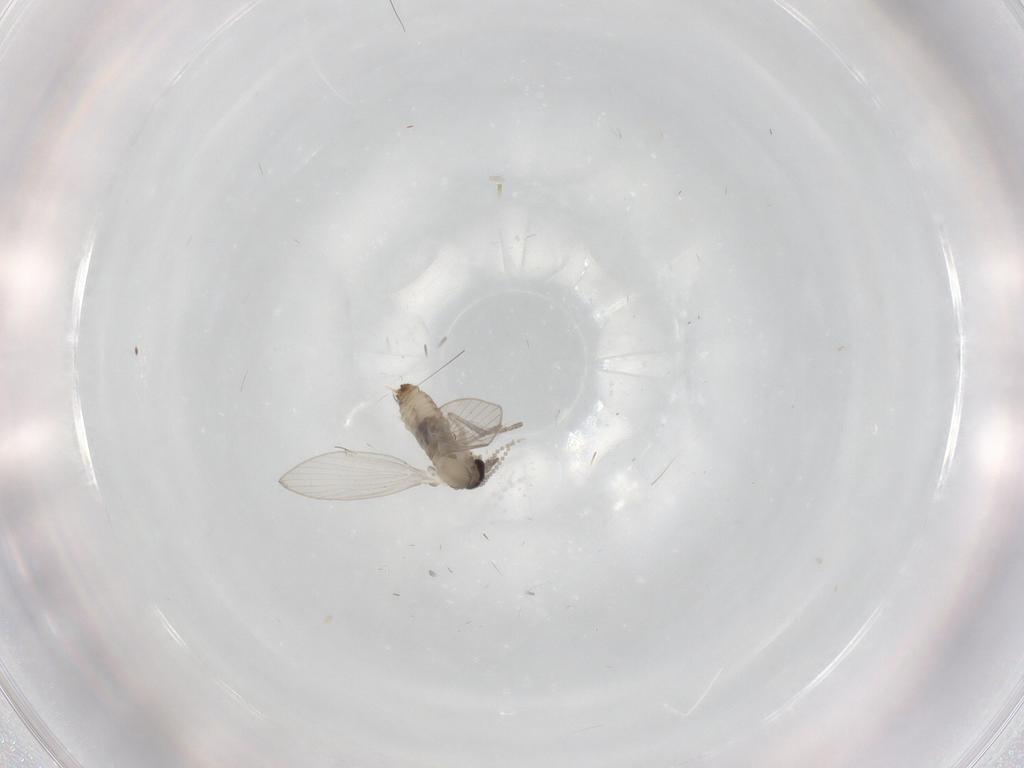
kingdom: Animalia
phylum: Arthropoda
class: Insecta
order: Diptera
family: Psychodidae
